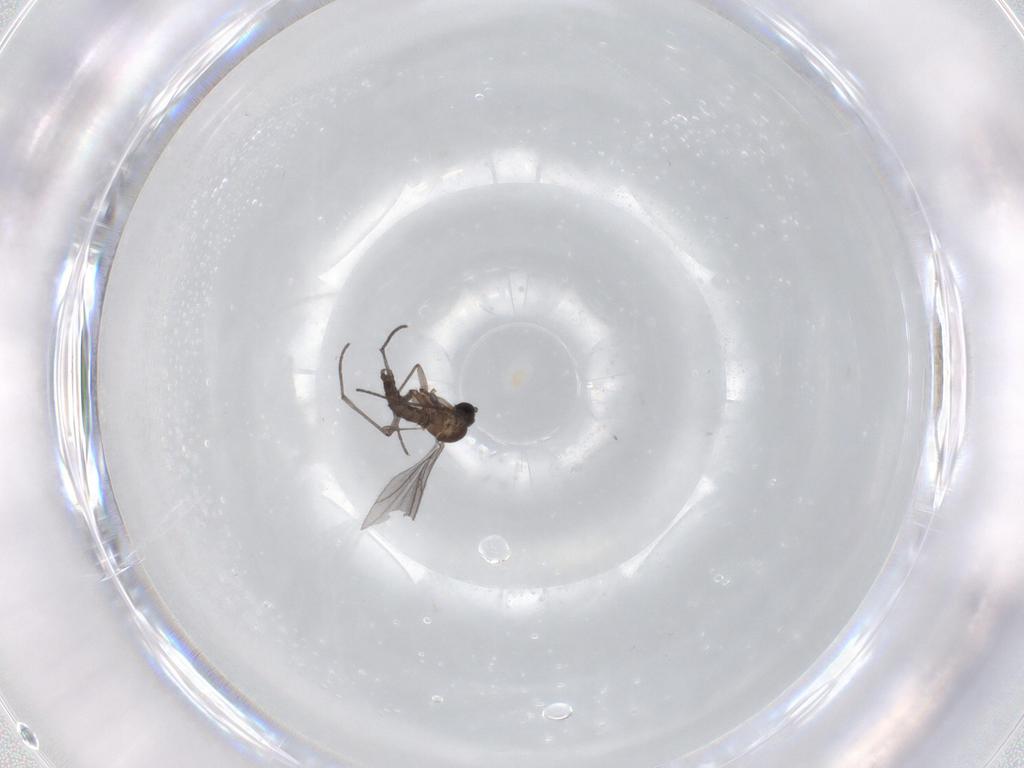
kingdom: Animalia
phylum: Arthropoda
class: Insecta
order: Diptera
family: Sciaridae
